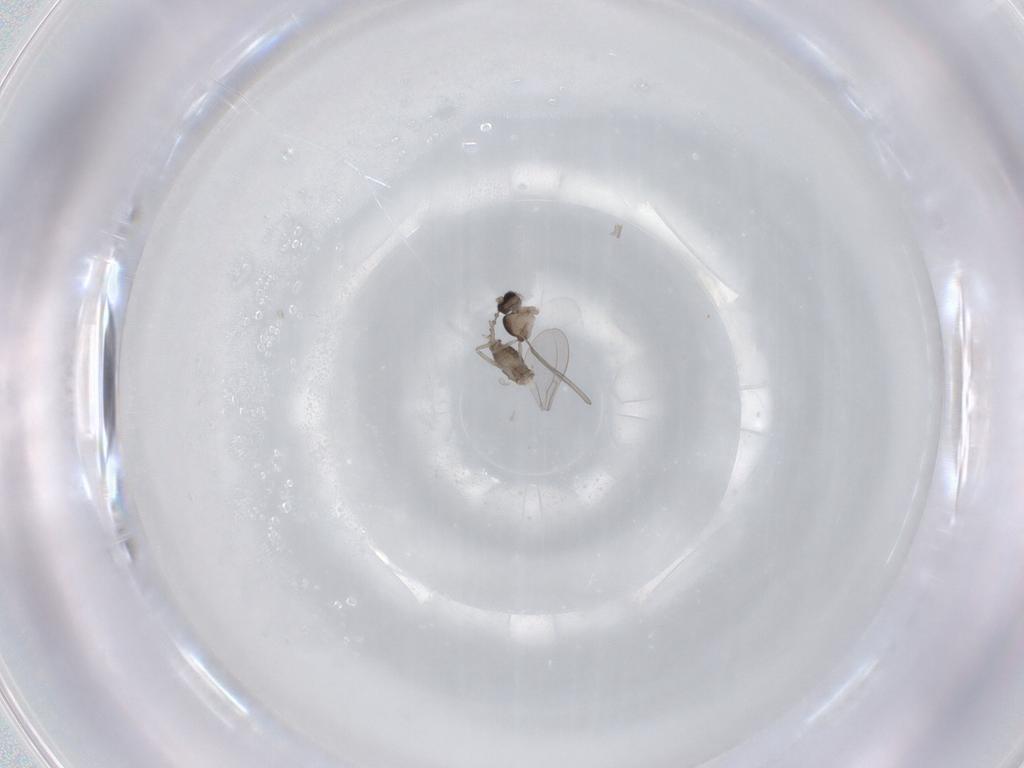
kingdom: Animalia
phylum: Arthropoda
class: Insecta
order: Diptera
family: Cecidomyiidae
